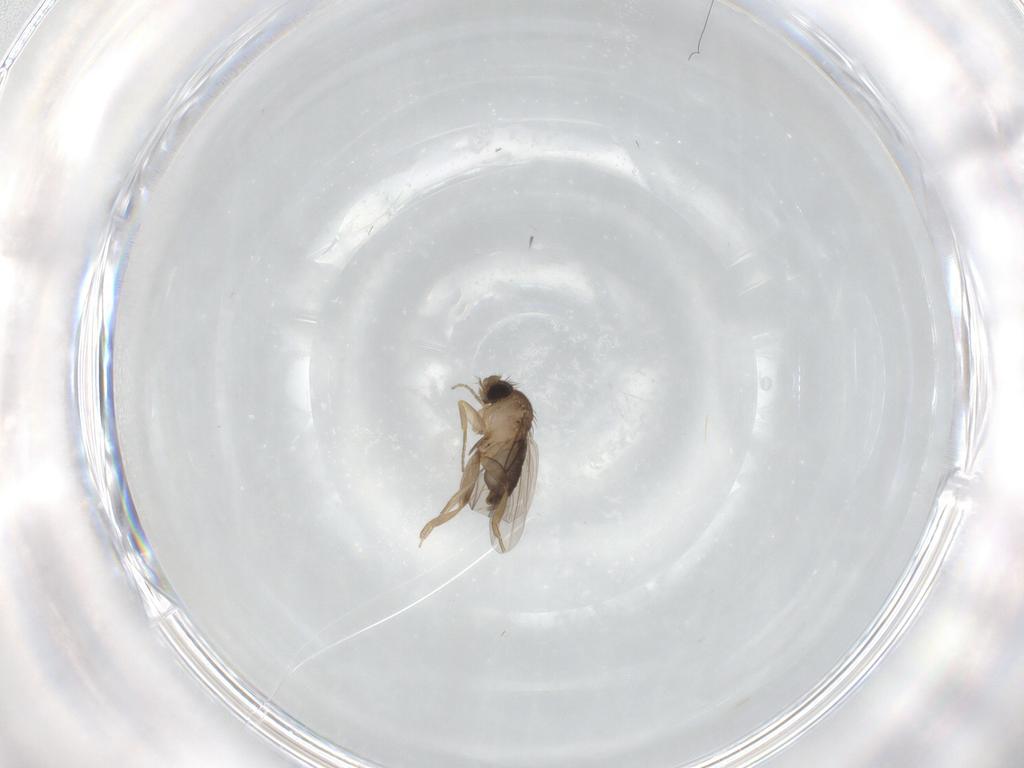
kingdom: Animalia
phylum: Arthropoda
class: Insecta
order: Diptera
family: Phoridae
